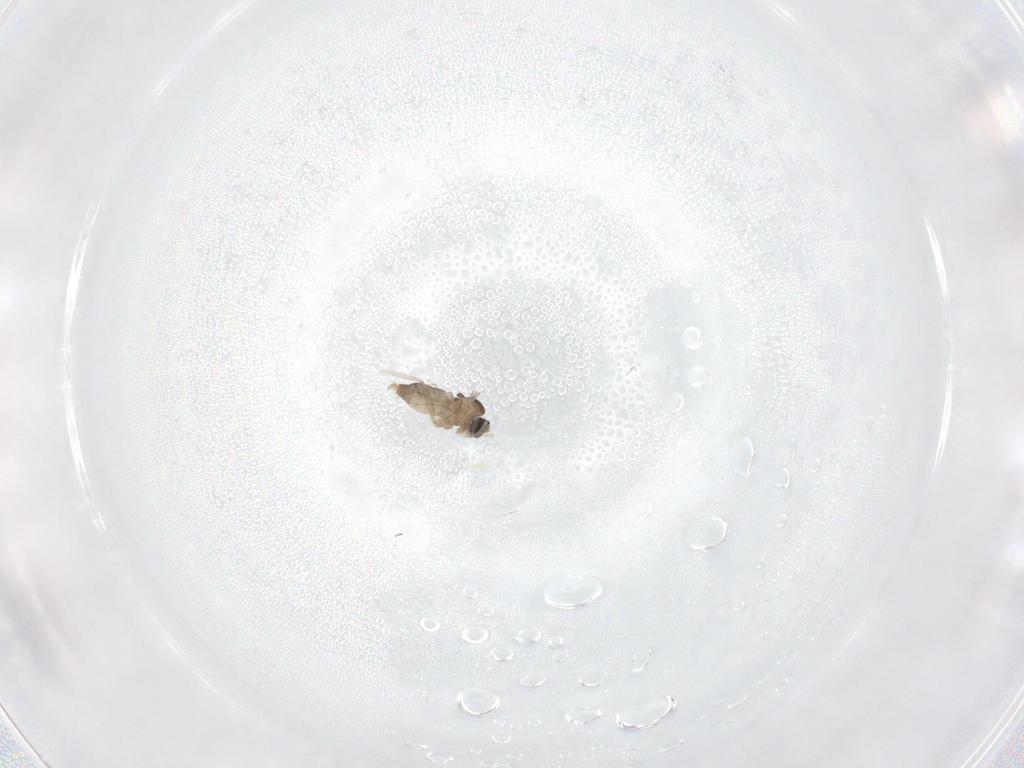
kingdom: Animalia
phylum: Arthropoda
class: Insecta
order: Diptera
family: Cecidomyiidae
